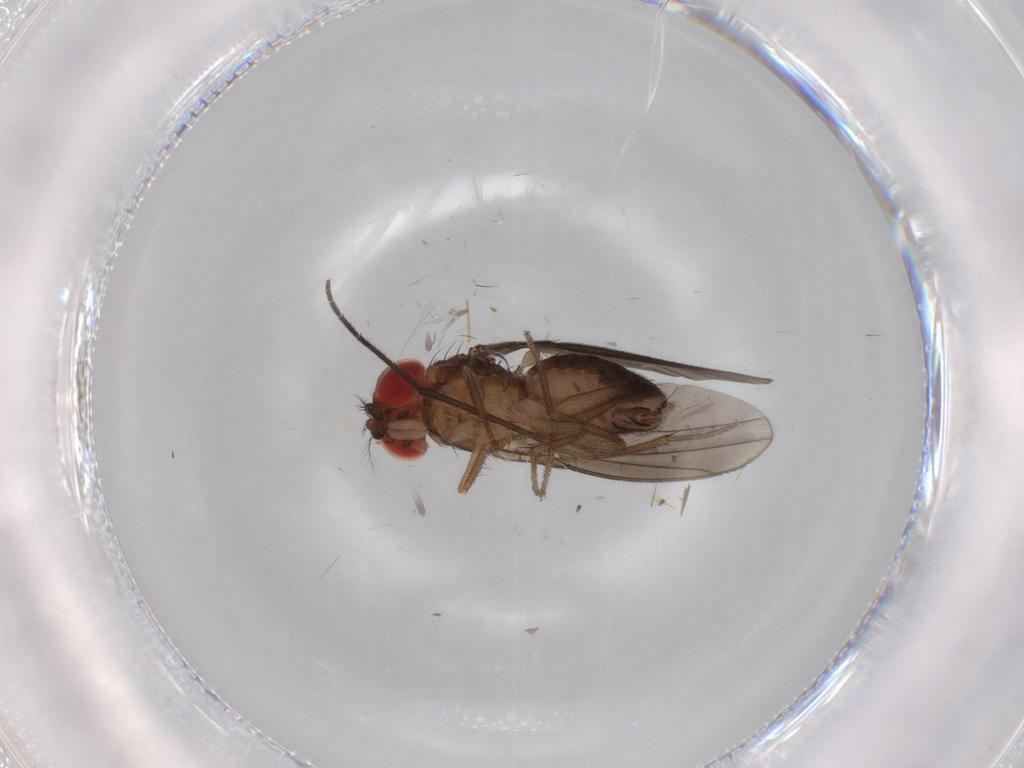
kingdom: Animalia
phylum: Arthropoda
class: Insecta
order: Diptera
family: Drosophilidae
